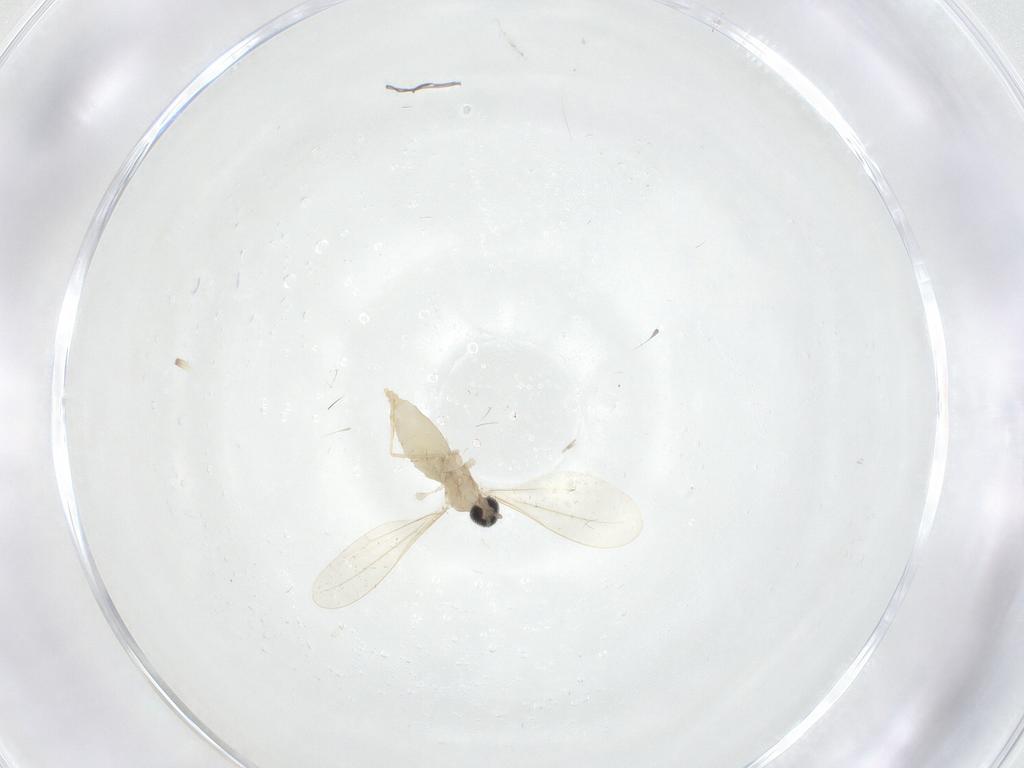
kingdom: Animalia
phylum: Arthropoda
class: Insecta
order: Diptera
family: Cecidomyiidae
